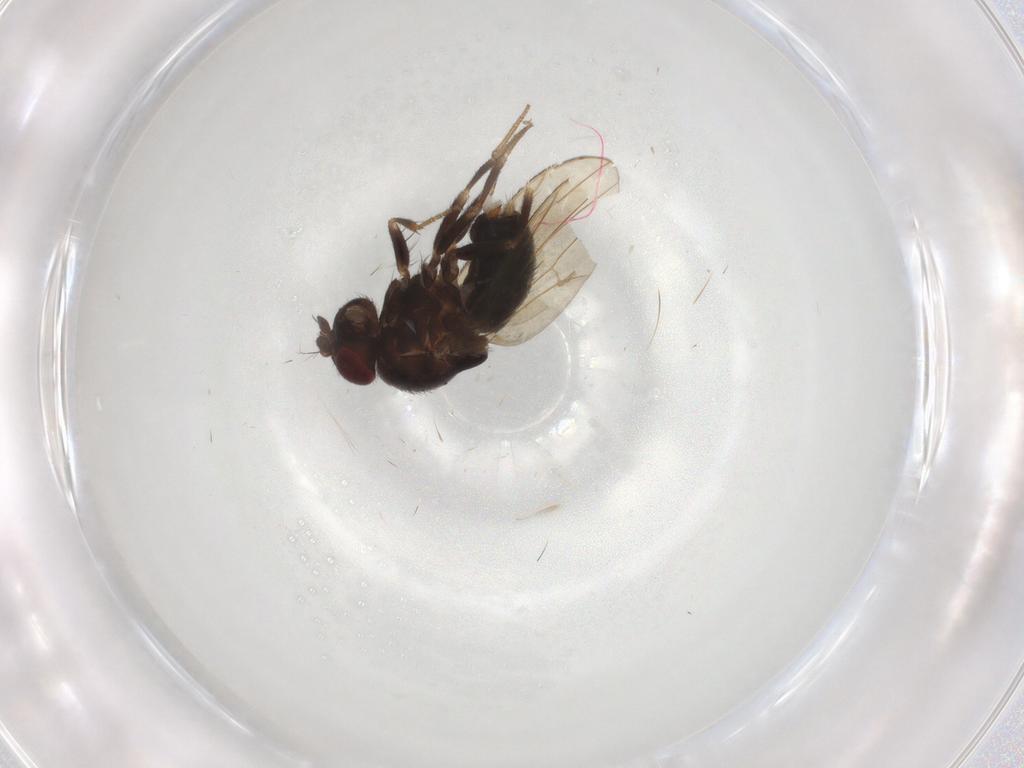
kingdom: Animalia
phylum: Arthropoda
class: Insecta
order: Diptera
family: Drosophilidae
